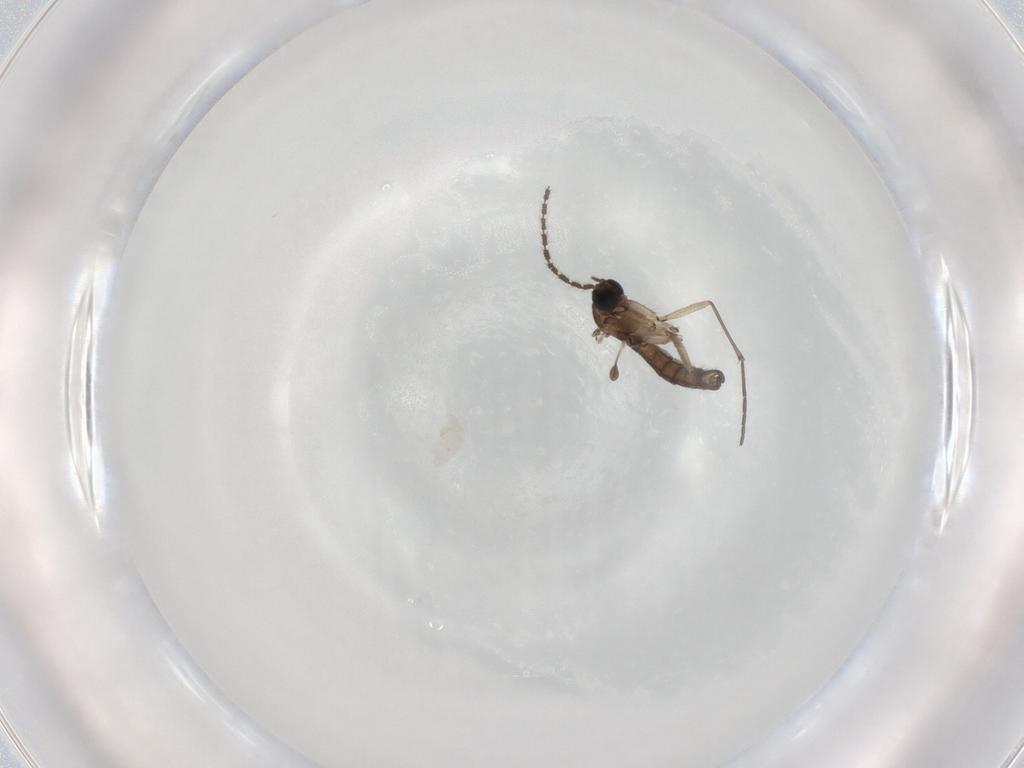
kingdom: Animalia
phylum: Arthropoda
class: Insecta
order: Diptera
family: Sciaridae
